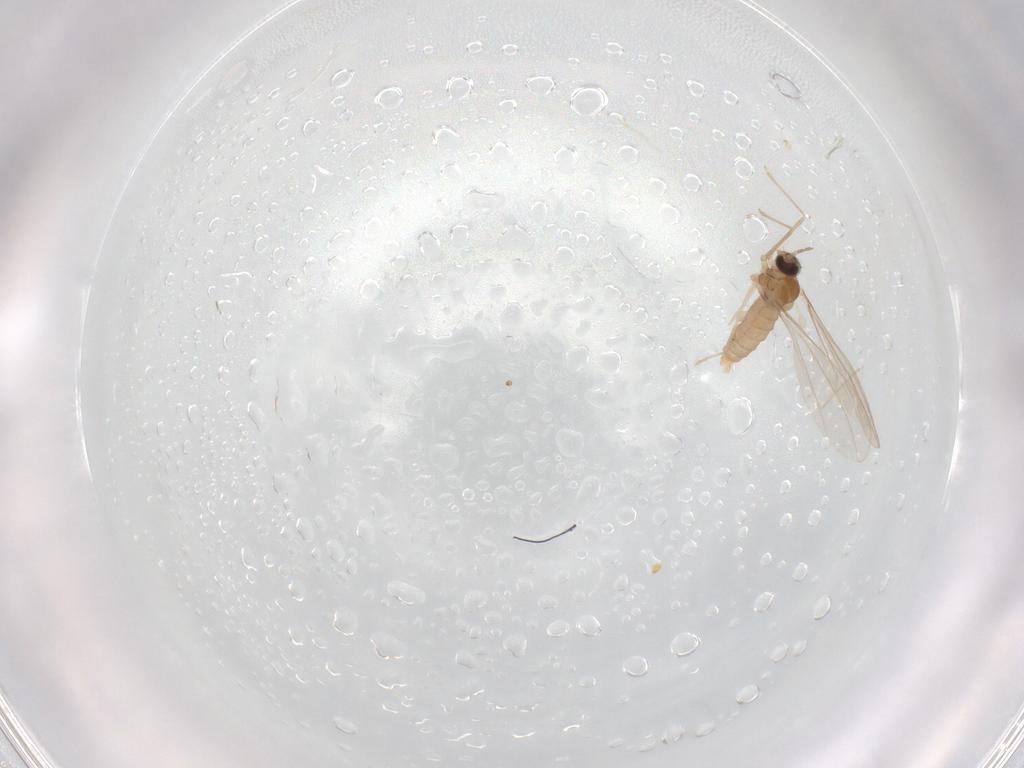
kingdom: Animalia
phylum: Arthropoda
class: Insecta
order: Diptera
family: Cecidomyiidae
